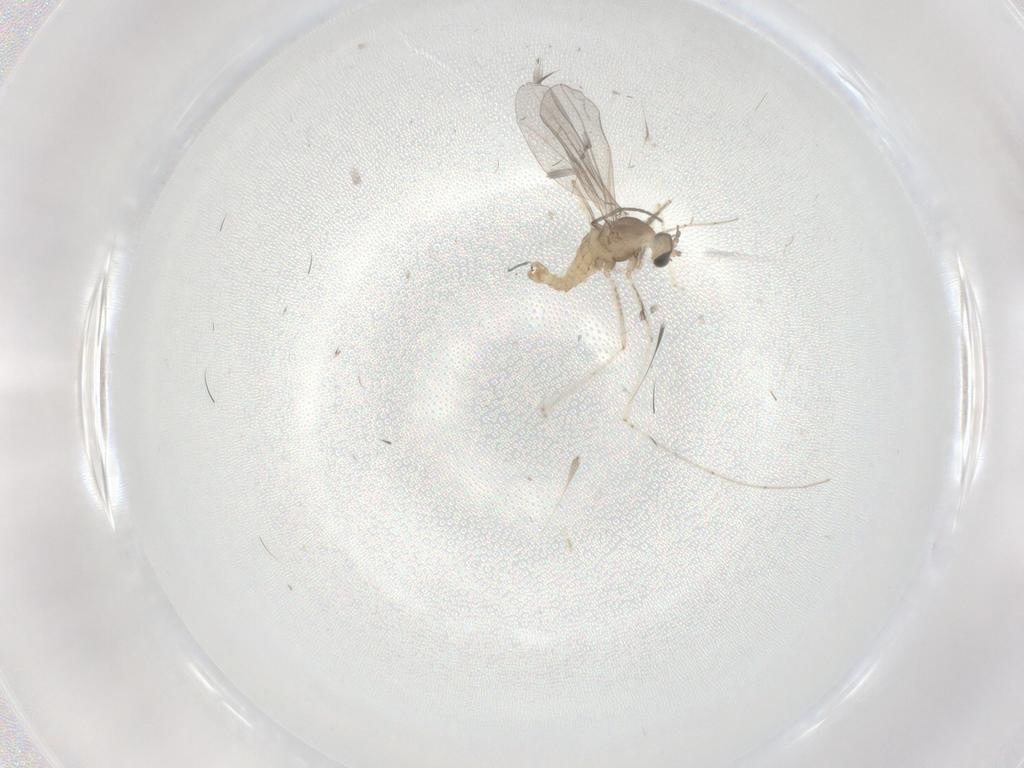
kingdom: Animalia
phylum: Arthropoda
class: Insecta
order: Diptera
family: Cecidomyiidae
